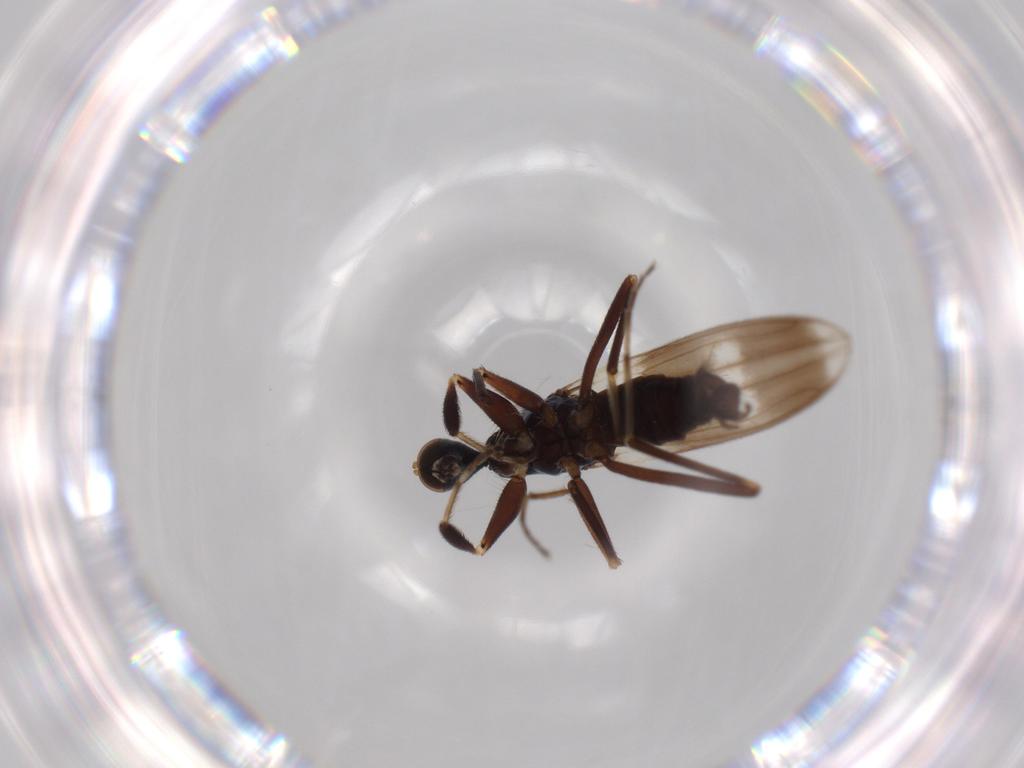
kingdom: Animalia
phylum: Arthropoda
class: Insecta
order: Diptera
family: Hybotidae
